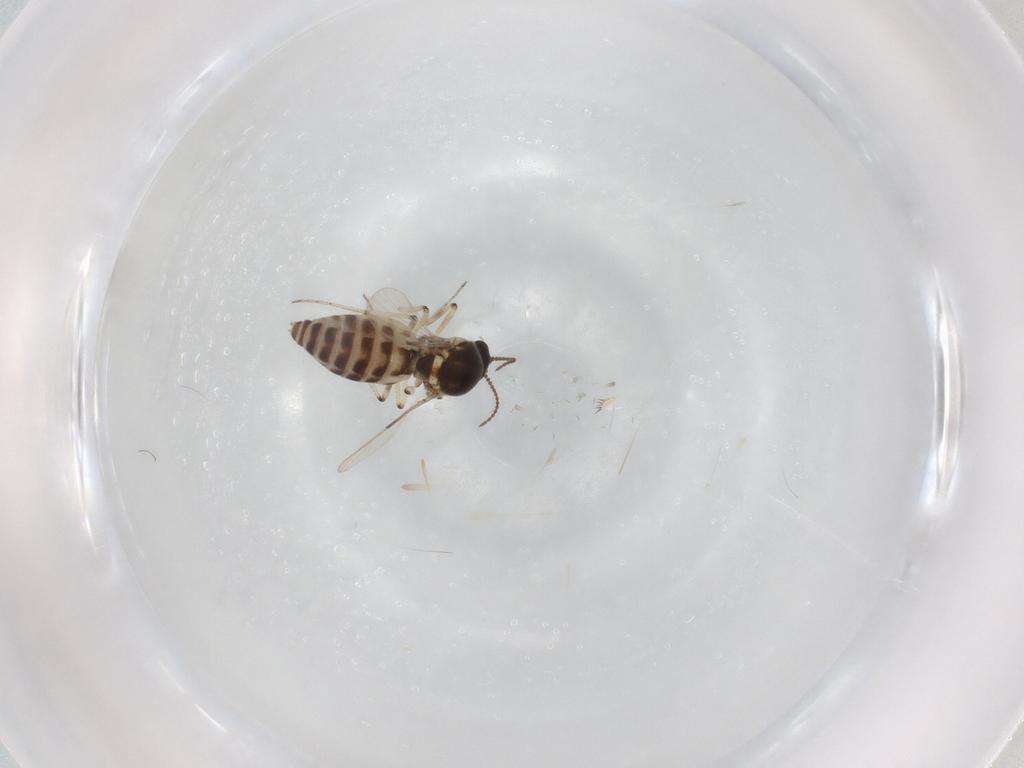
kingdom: Animalia
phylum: Arthropoda
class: Insecta
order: Diptera
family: Ceratopogonidae
